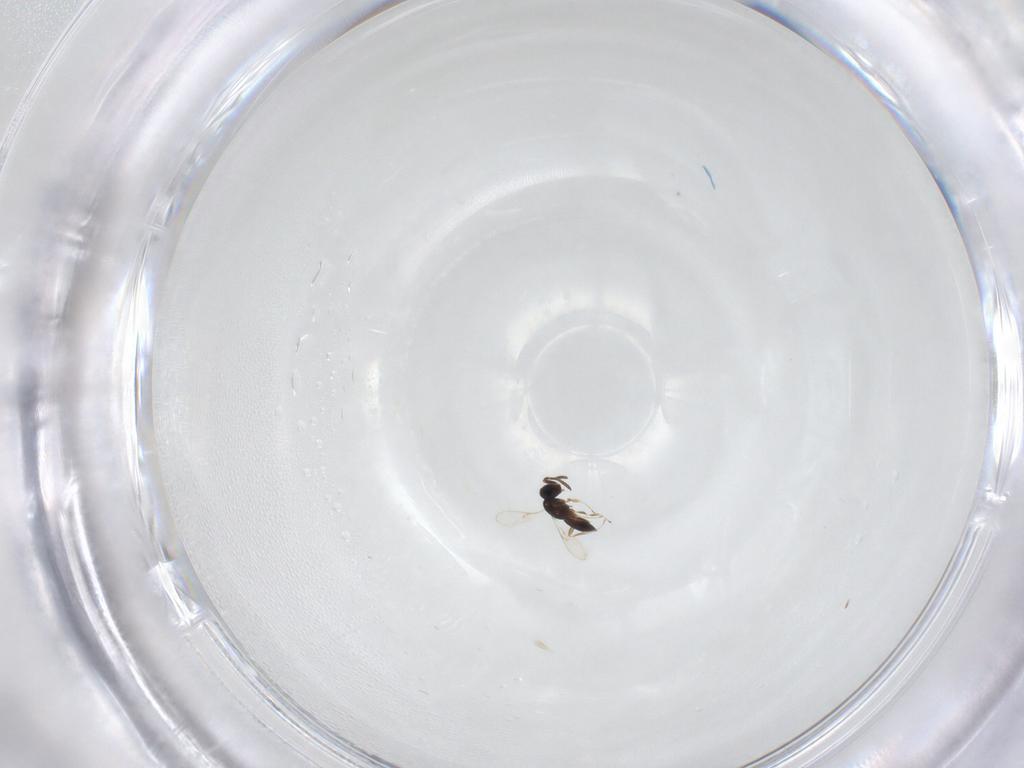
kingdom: Animalia
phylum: Arthropoda
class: Insecta
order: Hymenoptera
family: Scelionidae
